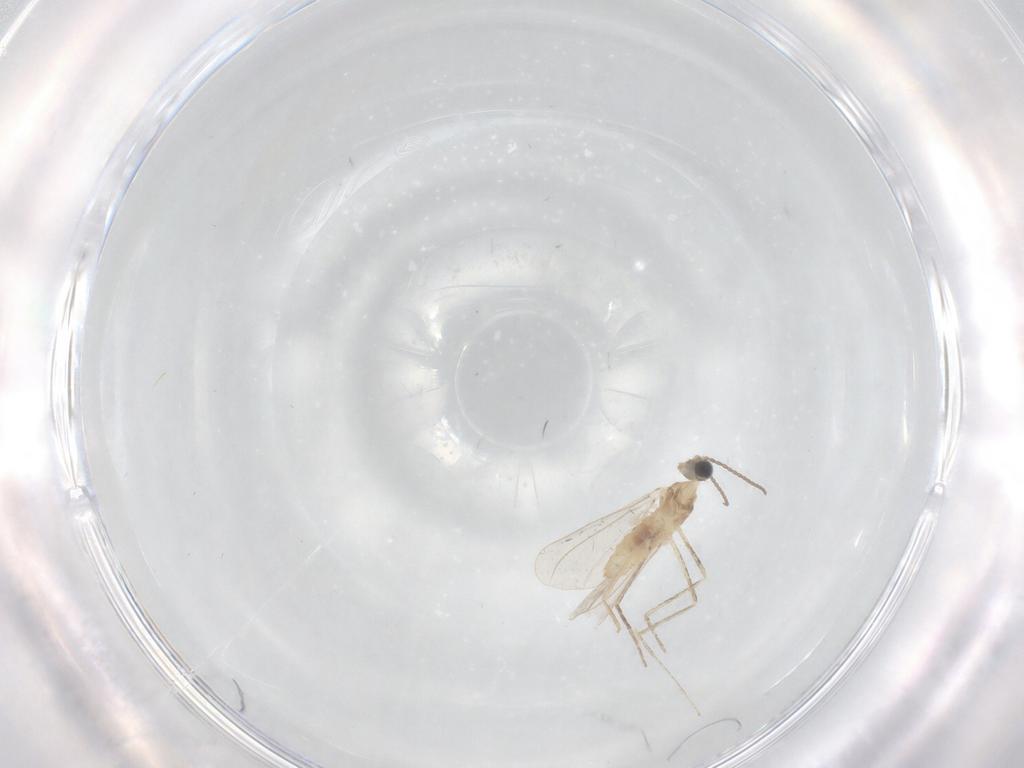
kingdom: Animalia
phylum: Arthropoda
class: Insecta
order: Diptera
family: Cecidomyiidae
